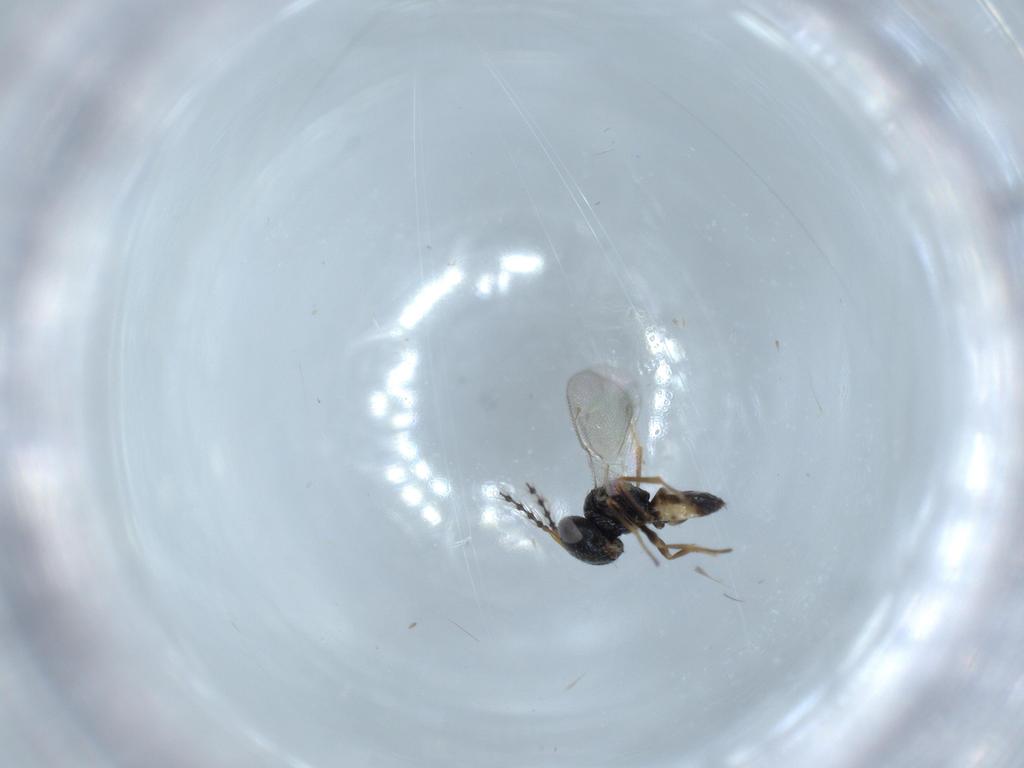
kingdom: Animalia
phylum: Arthropoda
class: Insecta
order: Hymenoptera
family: Pteromalidae
